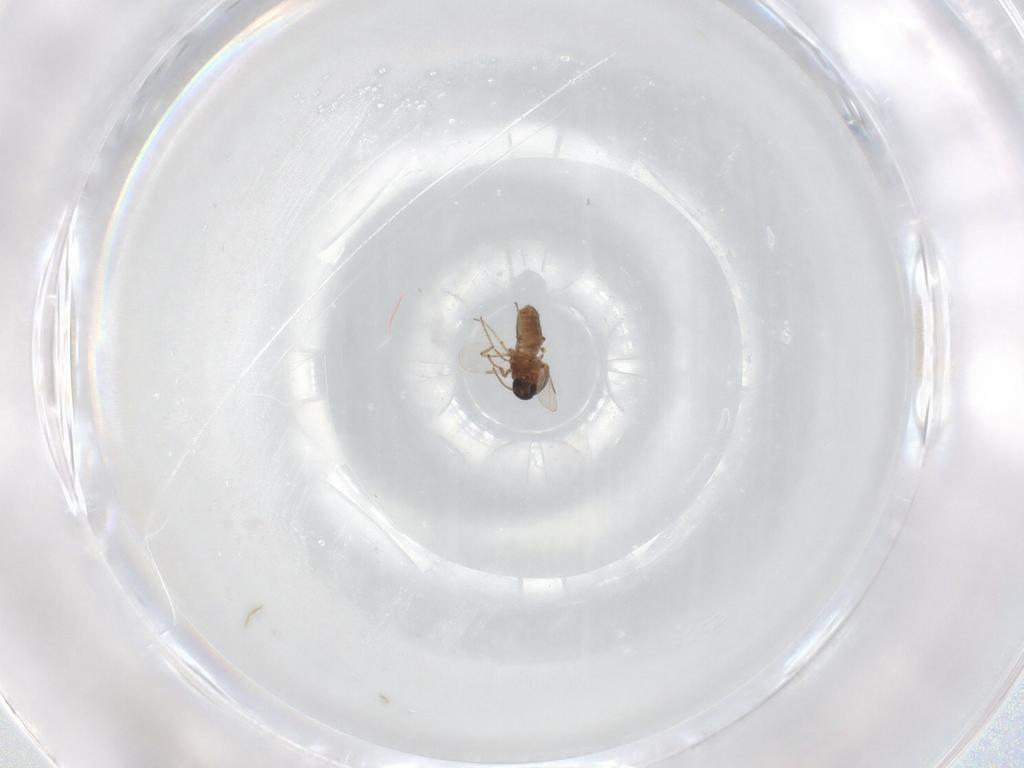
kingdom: Animalia
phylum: Arthropoda
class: Insecta
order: Diptera
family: Ceratopogonidae
